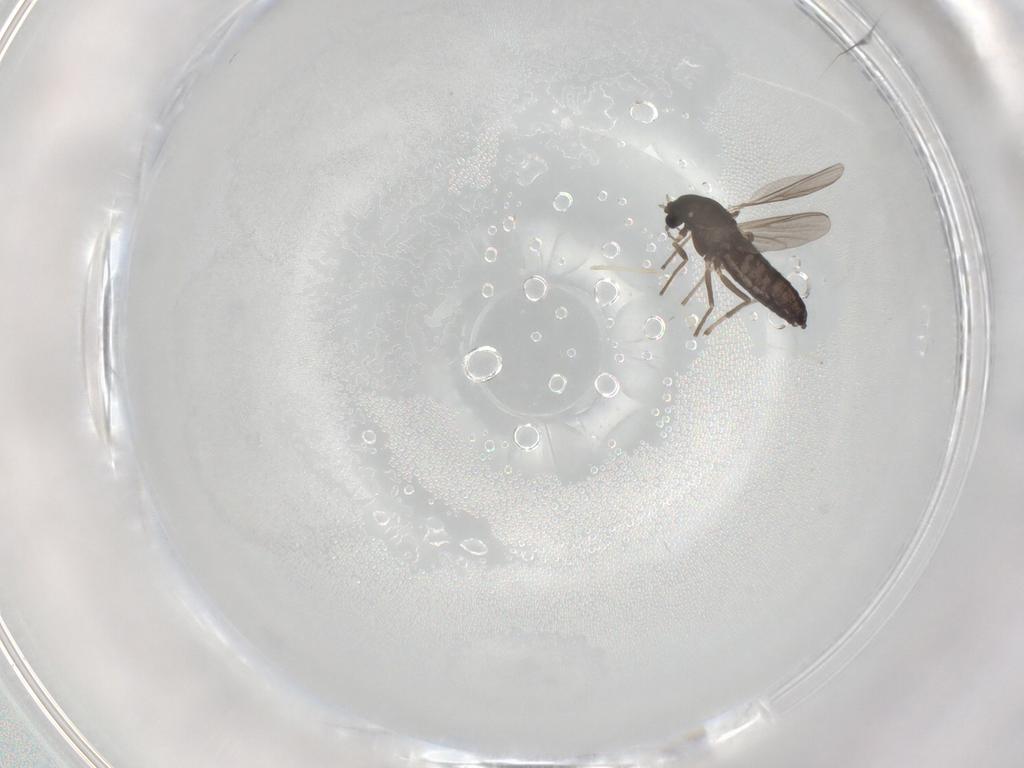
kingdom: Animalia
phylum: Arthropoda
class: Insecta
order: Diptera
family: Chironomidae
